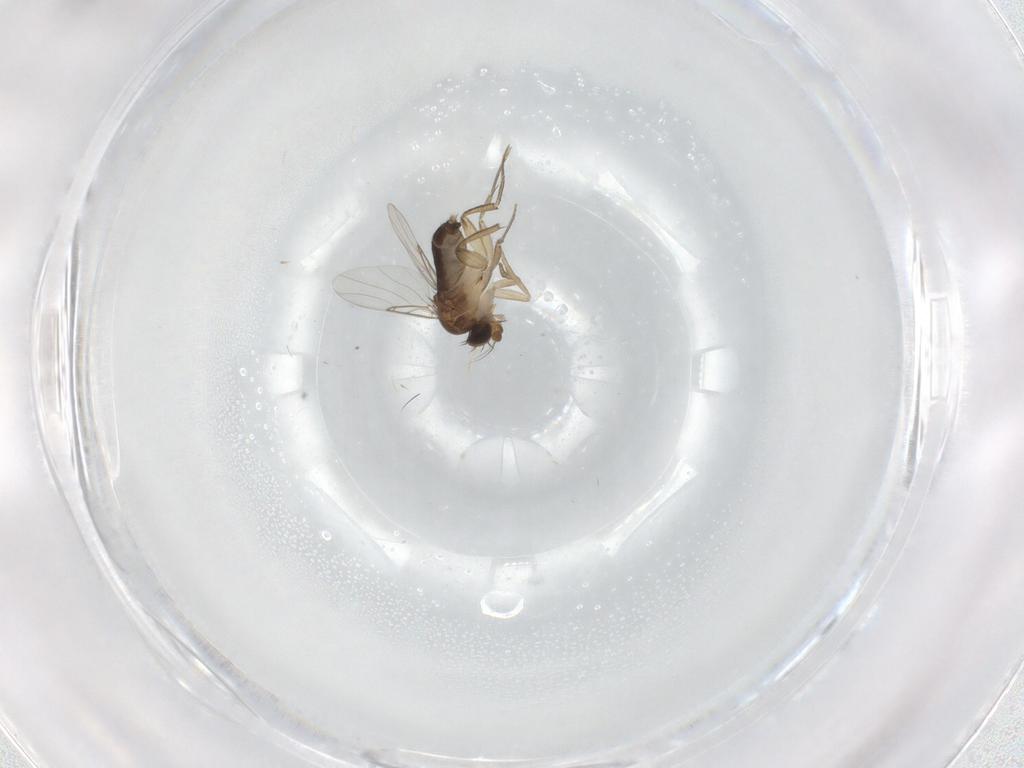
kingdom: Animalia
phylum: Arthropoda
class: Insecta
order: Diptera
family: Phoridae
